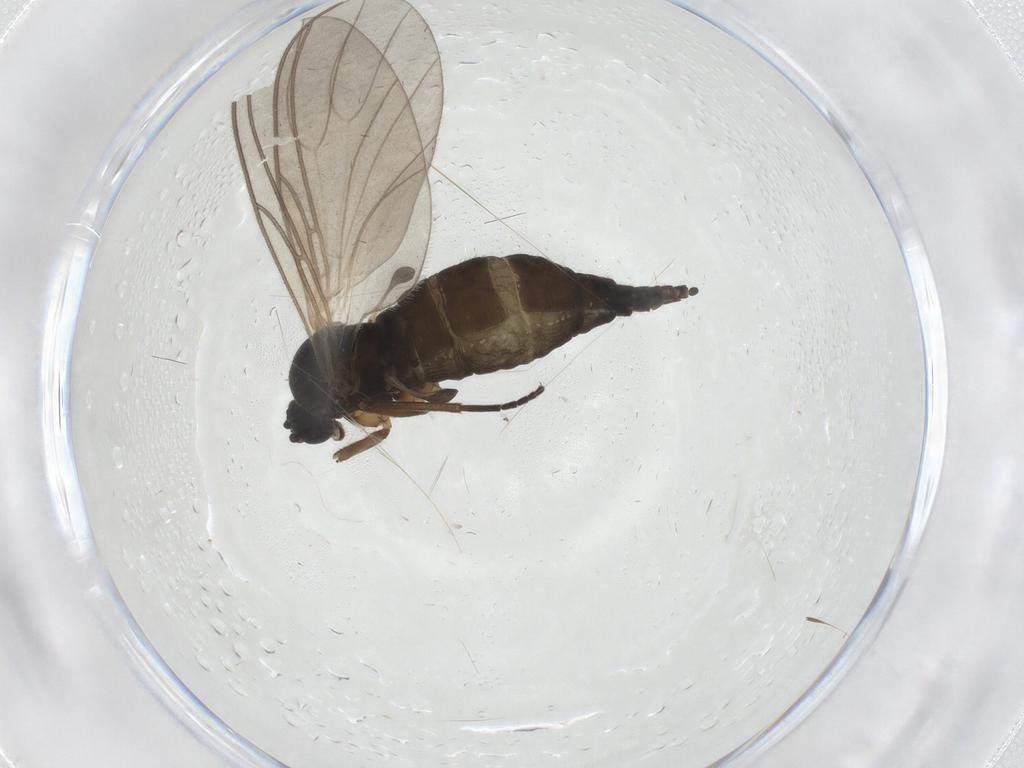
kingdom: Animalia
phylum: Arthropoda
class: Insecta
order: Diptera
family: Sciaridae
